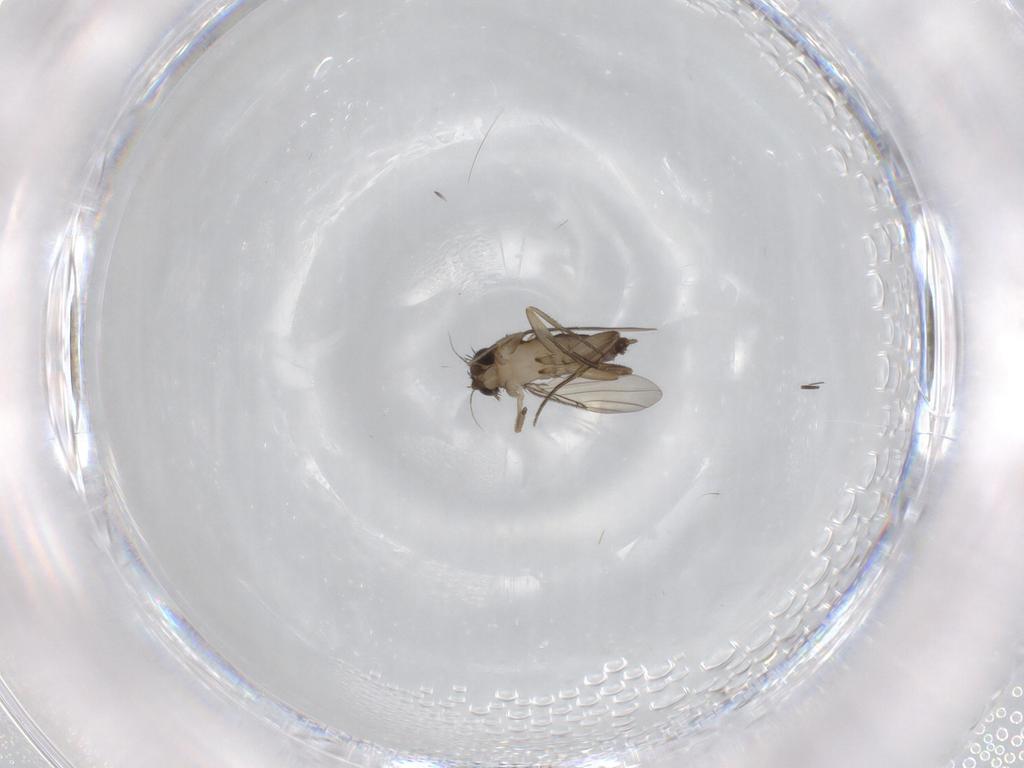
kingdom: Animalia
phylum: Arthropoda
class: Insecta
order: Diptera
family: Phoridae
